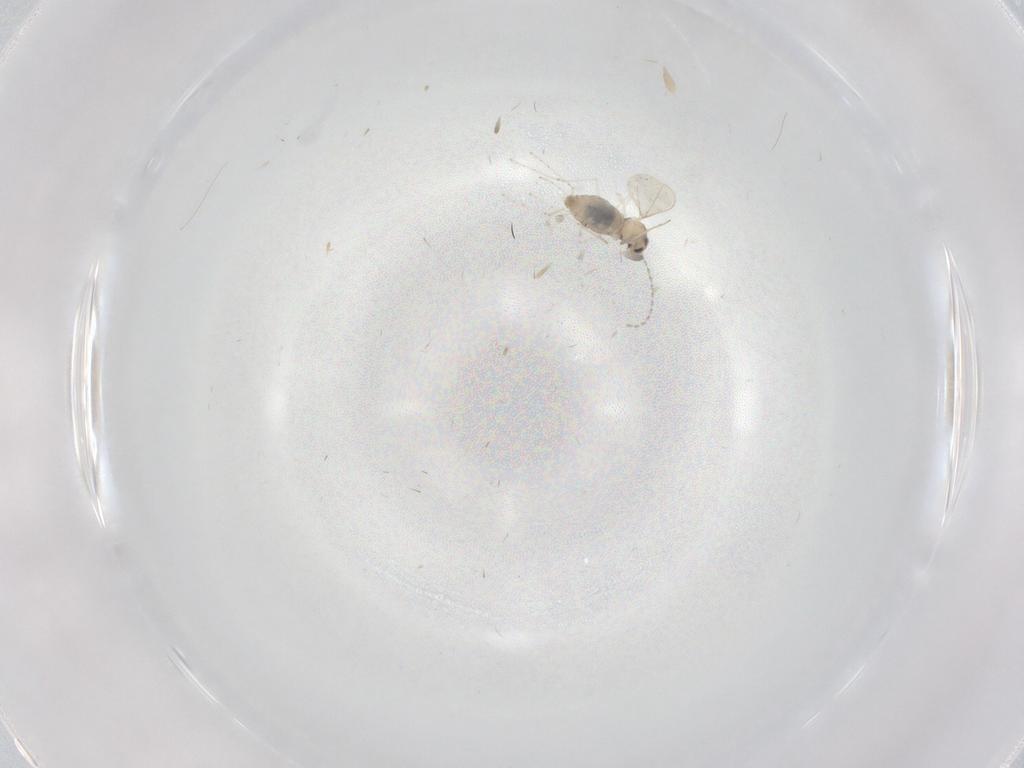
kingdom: Animalia
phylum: Arthropoda
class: Insecta
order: Diptera
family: Cecidomyiidae
